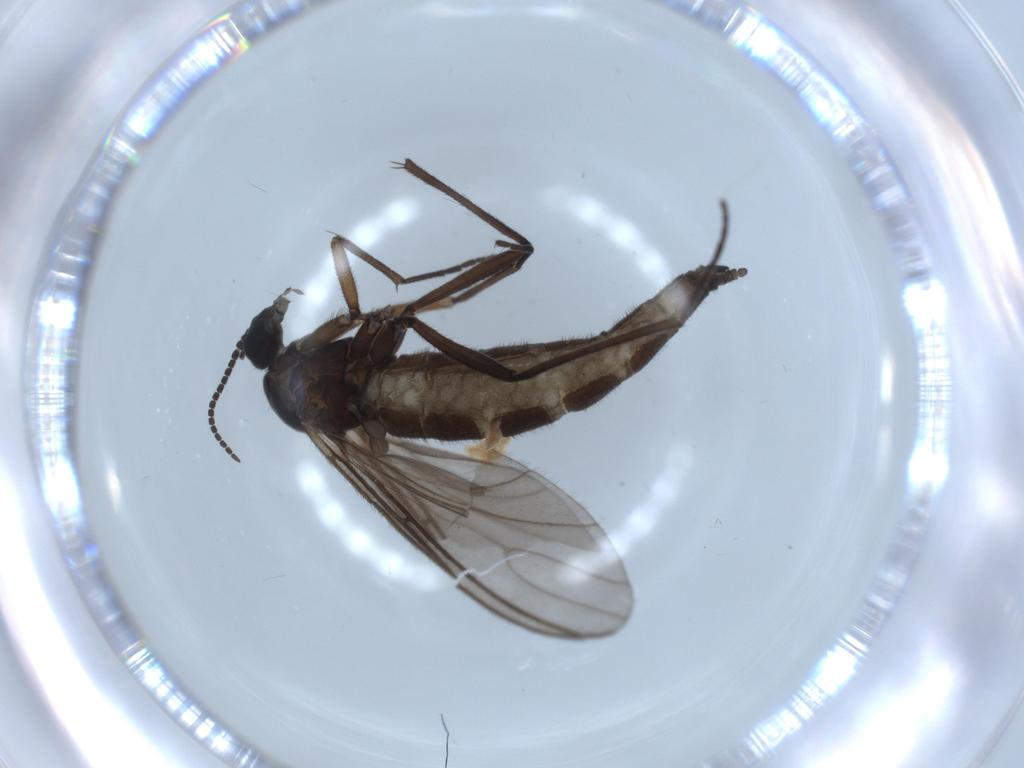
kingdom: Animalia
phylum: Arthropoda
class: Insecta
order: Diptera
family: Sciaridae
